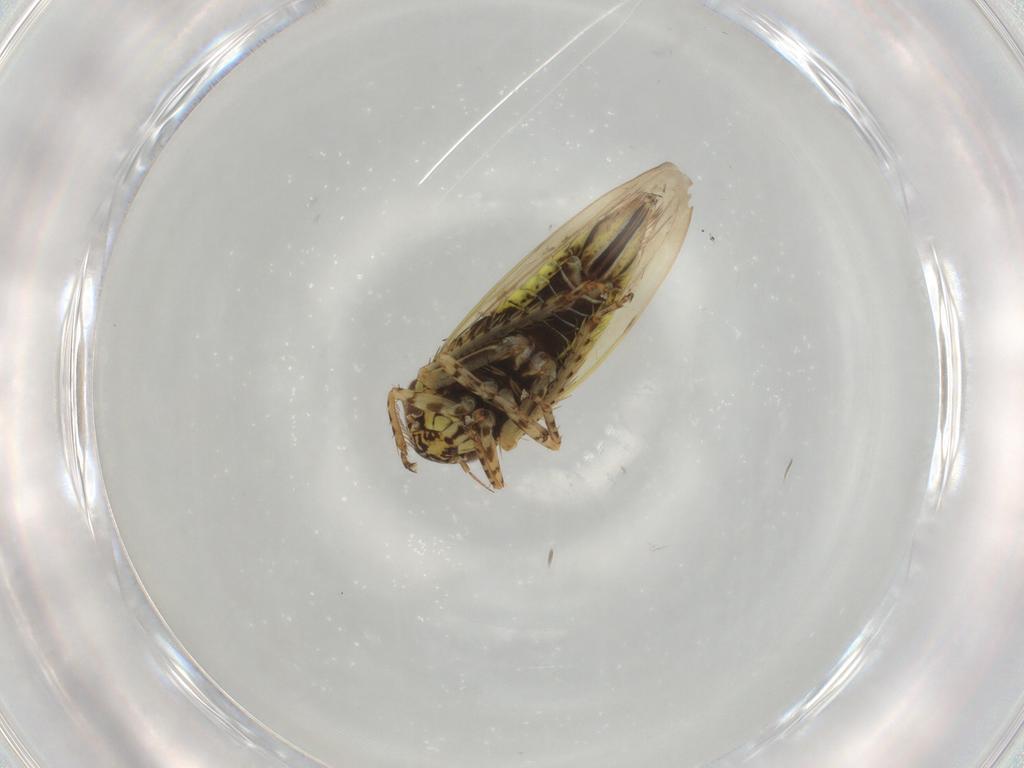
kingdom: Animalia
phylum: Arthropoda
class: Insecta
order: Hemiptera
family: Cicadellidae
